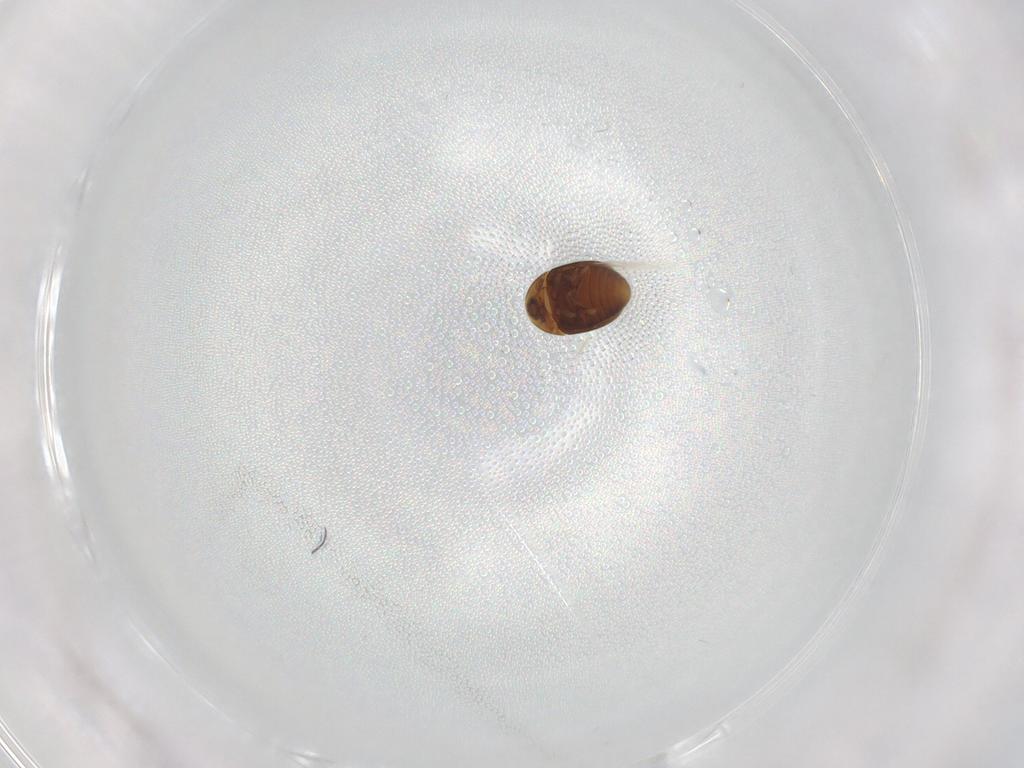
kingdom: Animalia
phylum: Arthropoda
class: Insecta
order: Coleoptera
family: Corylophidae
